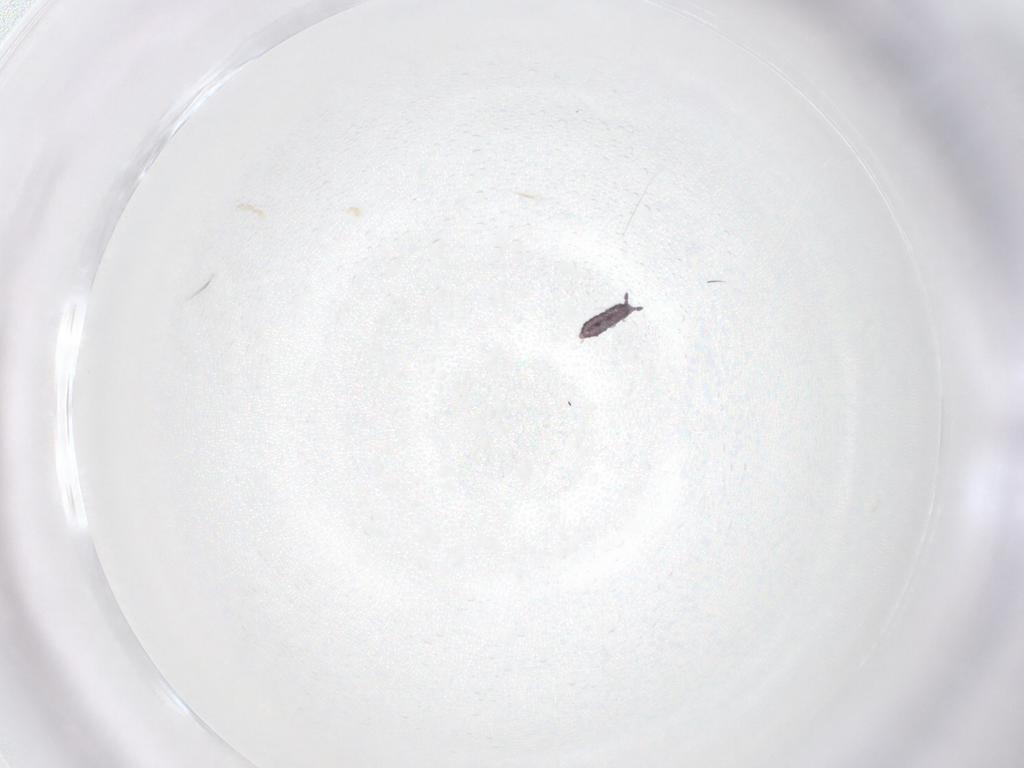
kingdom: Animalia
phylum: Arthropoda
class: Collembola
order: Poduromorpha
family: Hypogastruridae
